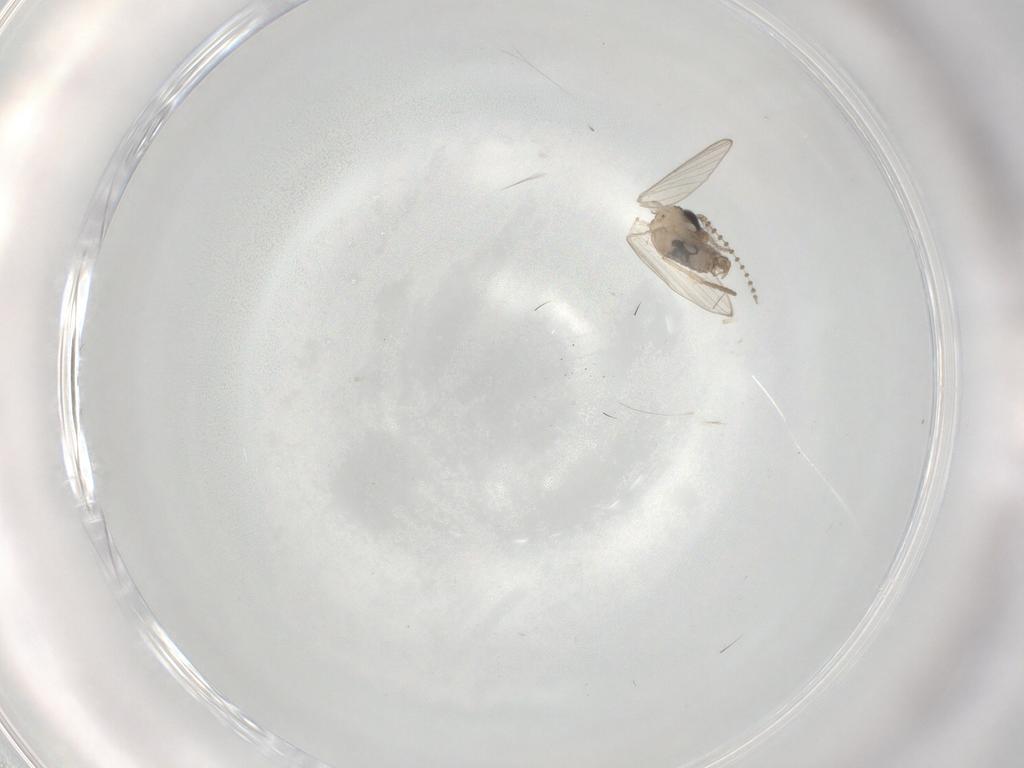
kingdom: Animalia
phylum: Arthropoda
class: Insecta
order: Diptera
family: Psychodidae
